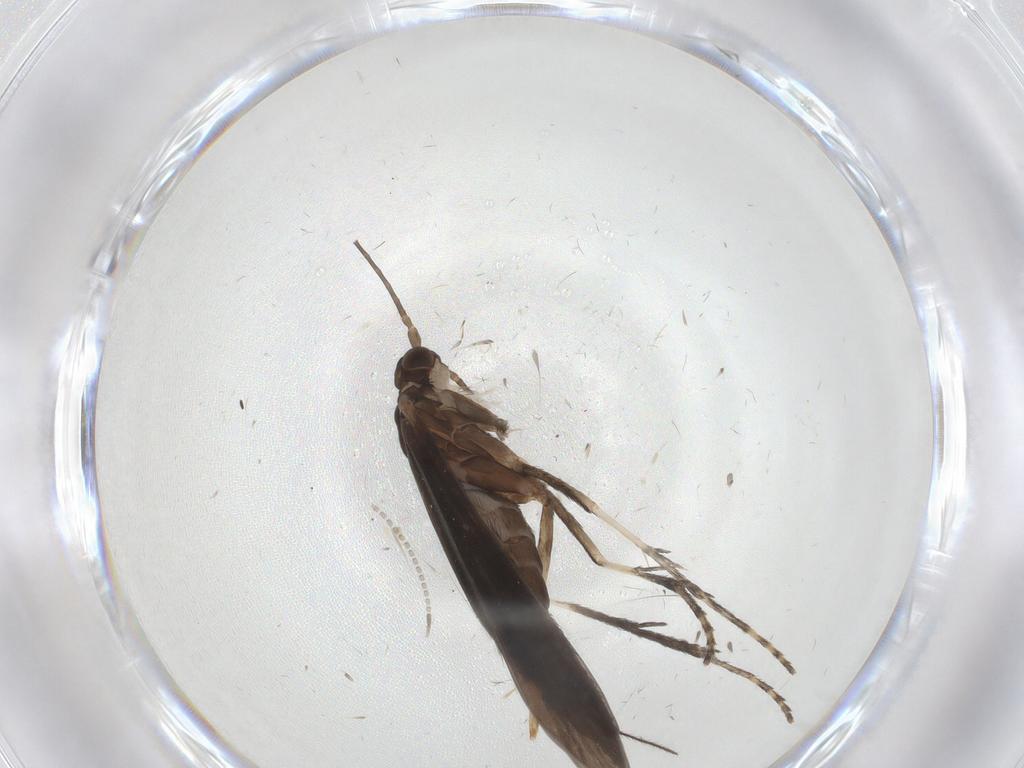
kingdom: Animalia
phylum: Arthropoda
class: Insecta
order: Trichoptera
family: Xiphocentronidae
